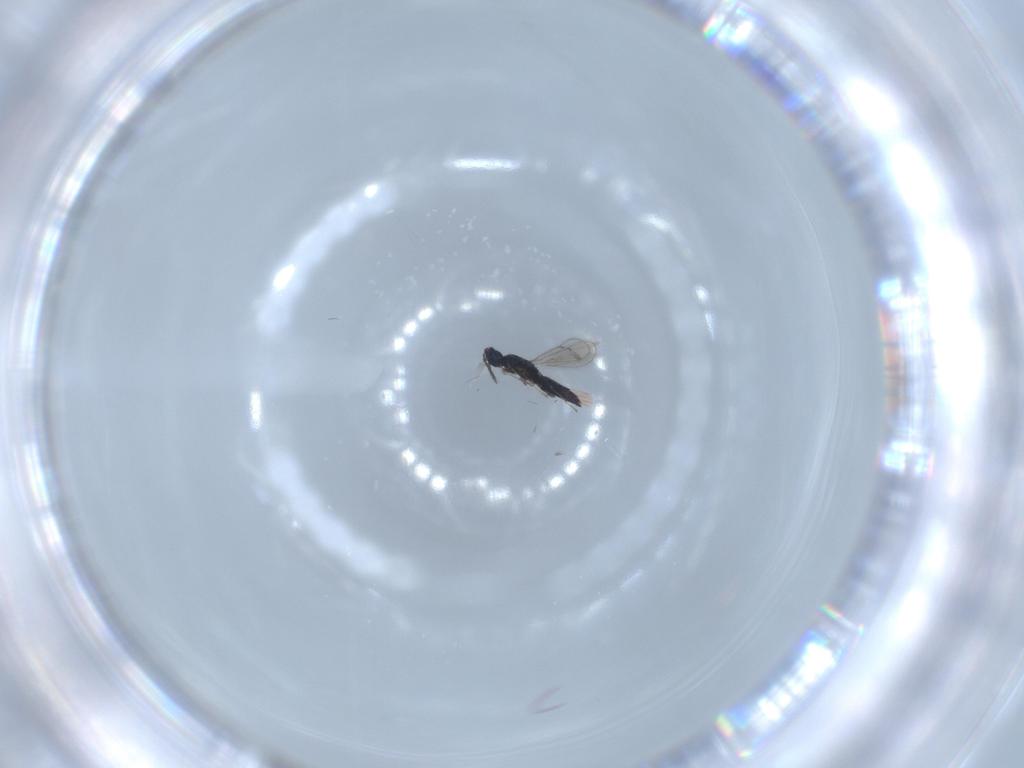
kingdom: Animalia
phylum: Arthropoda
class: Insecta
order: Hymenoptera
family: Eulophidae
